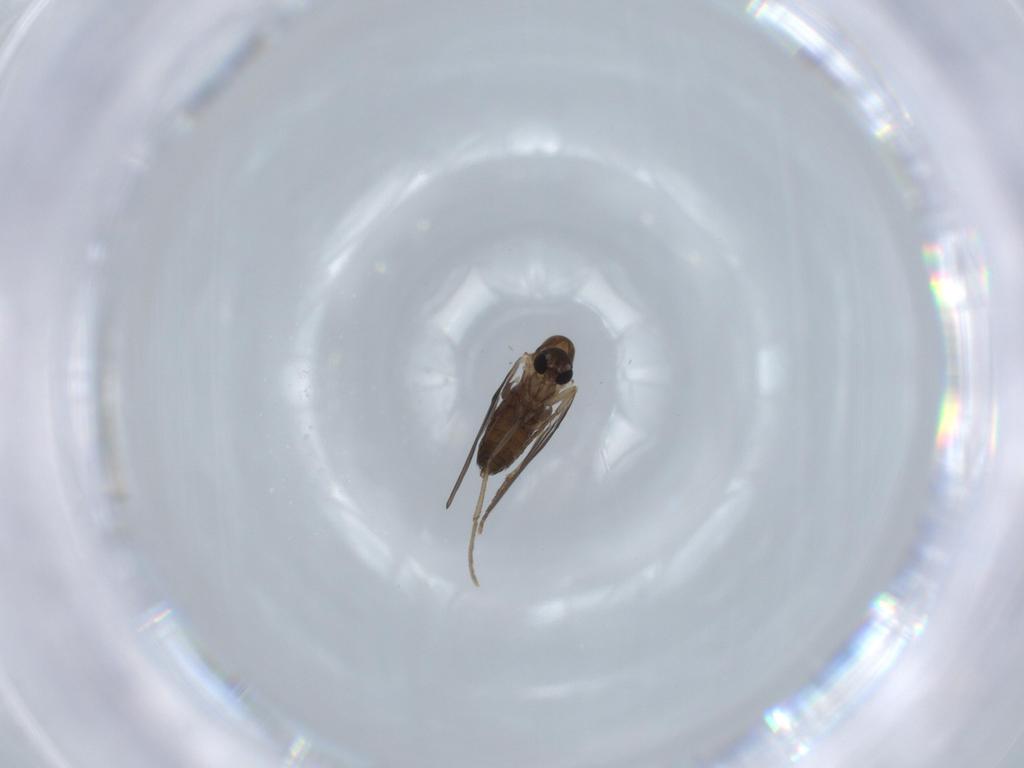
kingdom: Animalia
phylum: Arthropoda
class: Insecta
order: Diptera
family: Psychodidae
